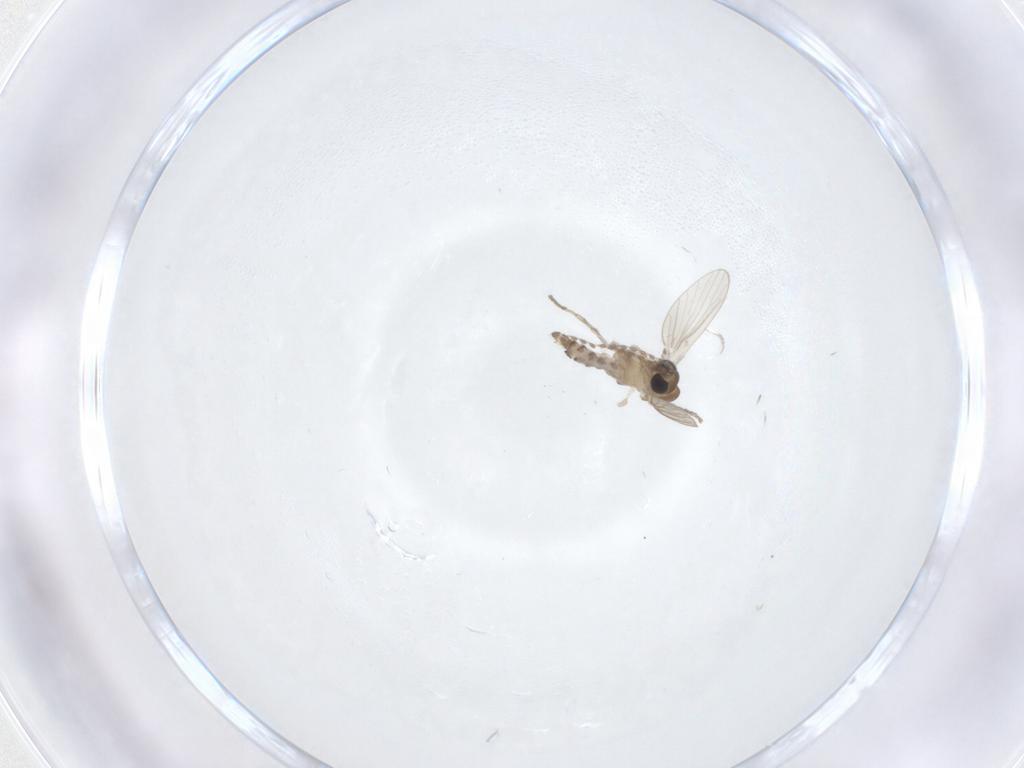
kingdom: Animalia
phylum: Arthropoda
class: Insecta
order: Diptera
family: Phoridae
